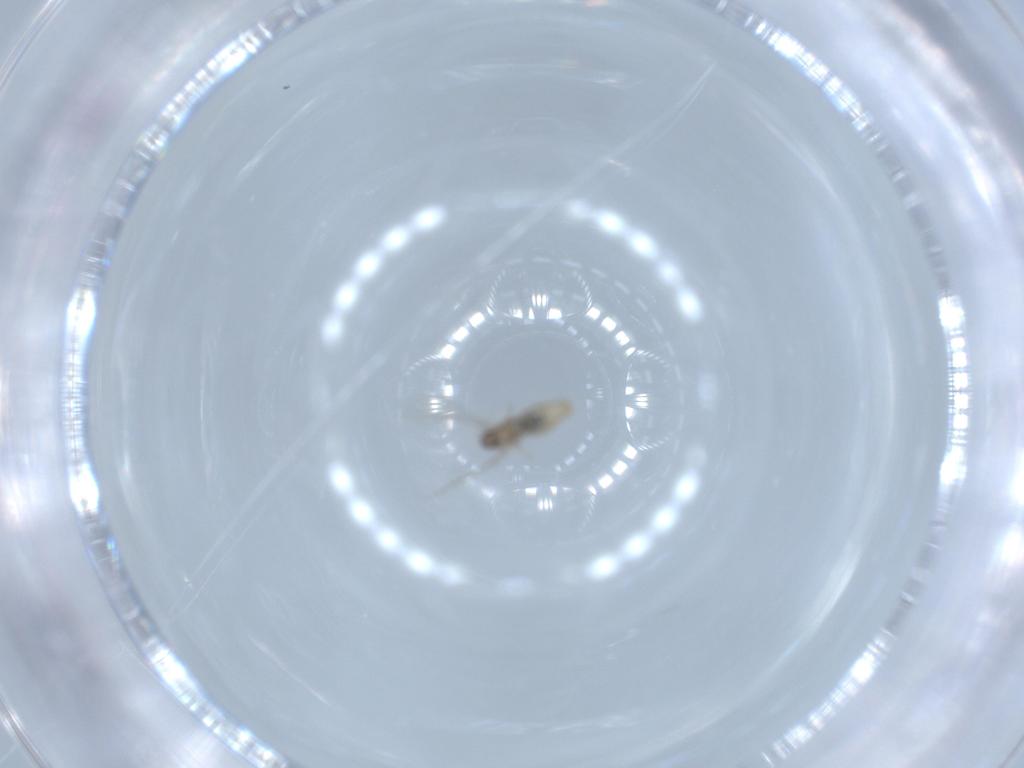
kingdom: Animalia
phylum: Arthropoda
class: Insecta
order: Diptera
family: Cecidomyiidae
